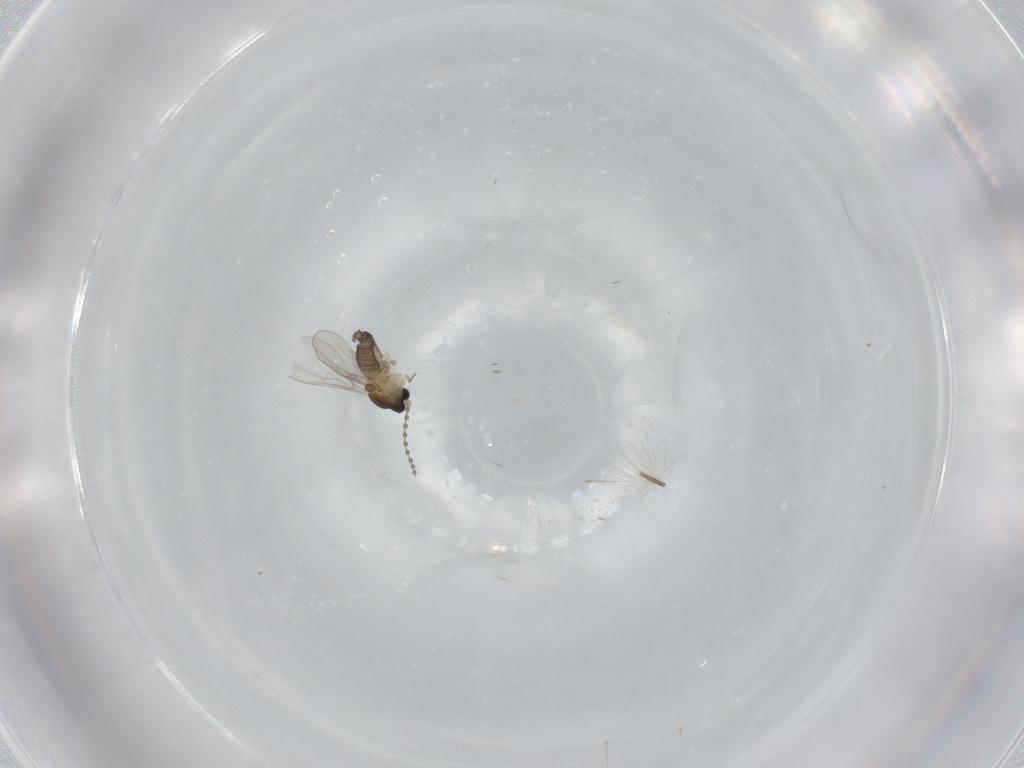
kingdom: Animalia
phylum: Arthropoda
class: Insecta
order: Diptera
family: Cecidomyiidae
